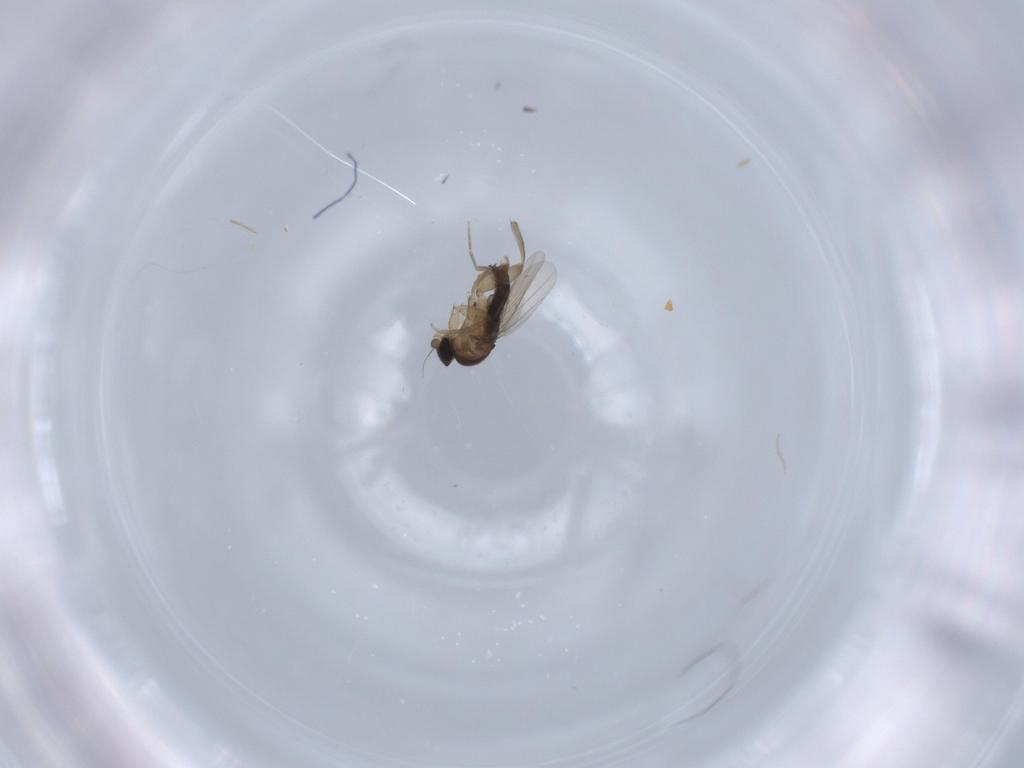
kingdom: Animalia
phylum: Arthropoda
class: Insecta
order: Diptera
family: Phoridae
